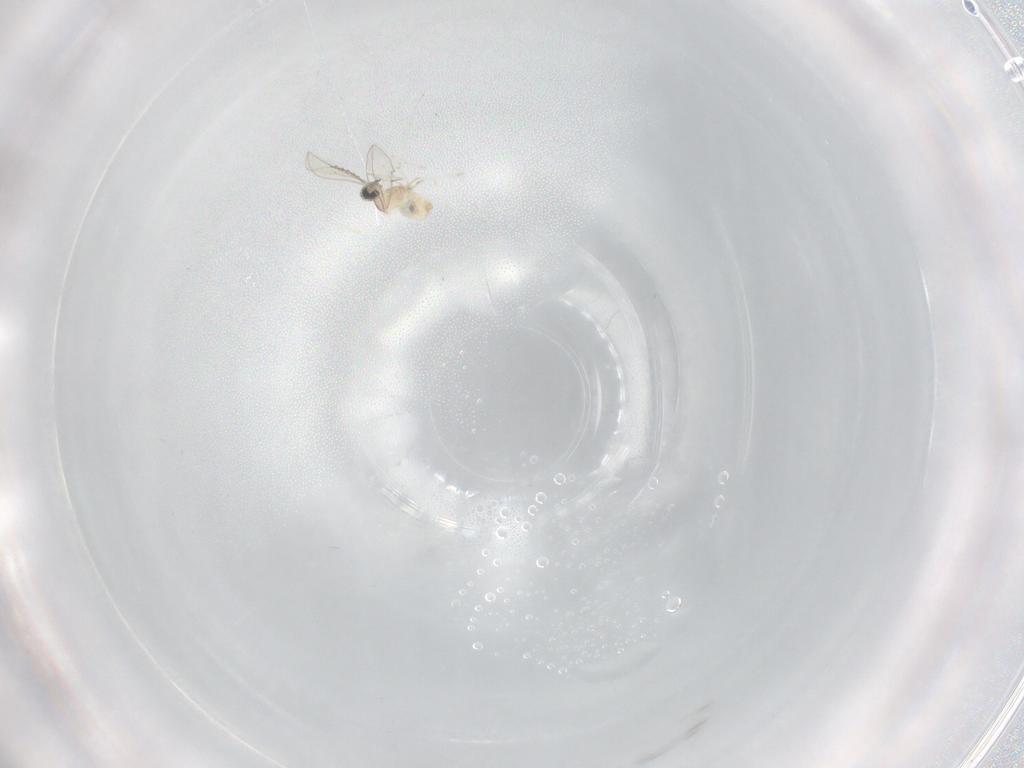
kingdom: Animalia
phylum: Arthropoda
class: Insecta
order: Diptera
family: Cecidomyiidae
